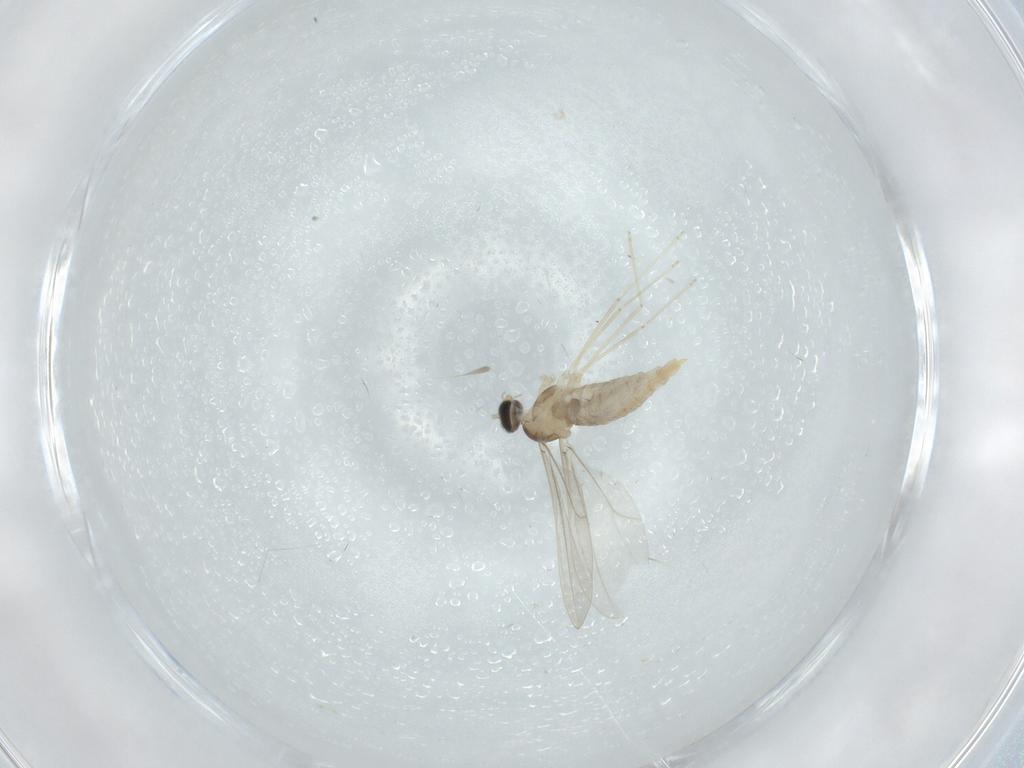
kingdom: Animalia
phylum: Arthropoda
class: Insecta
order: Diptera
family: Cecidomyiidae
